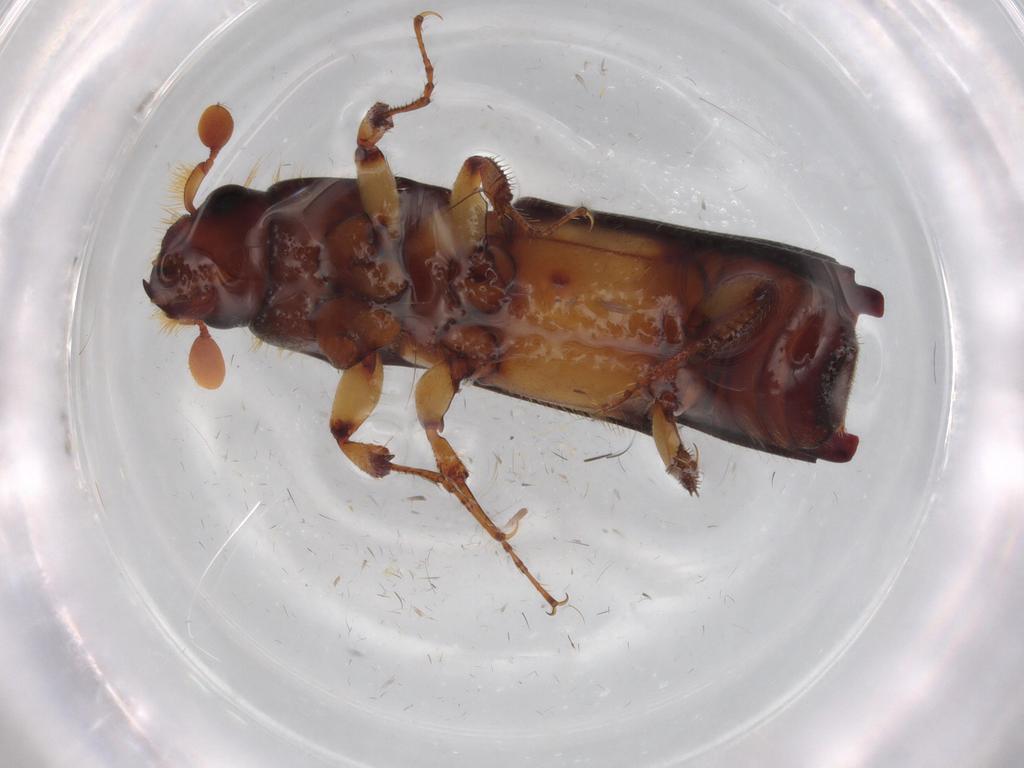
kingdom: Animalia
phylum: Arthropoda
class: Insecta
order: Coleoptera
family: Curculionidae
